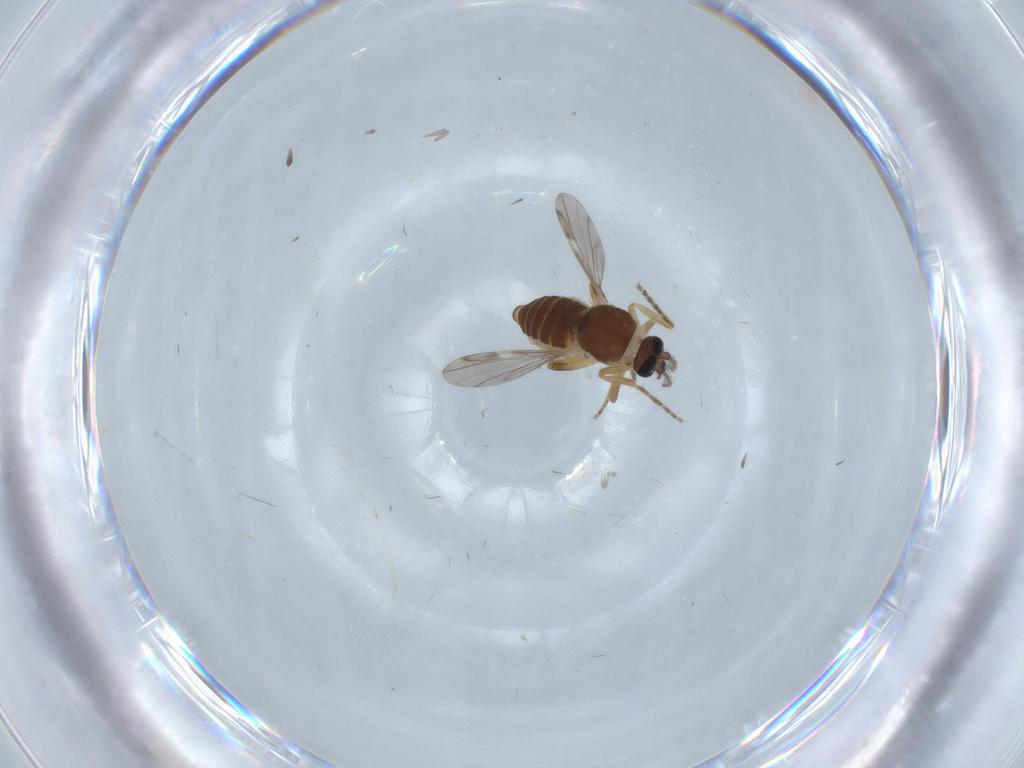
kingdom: Animalia
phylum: Arthropoda
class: Insecta
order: Diptera
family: Ceratopogonidae
